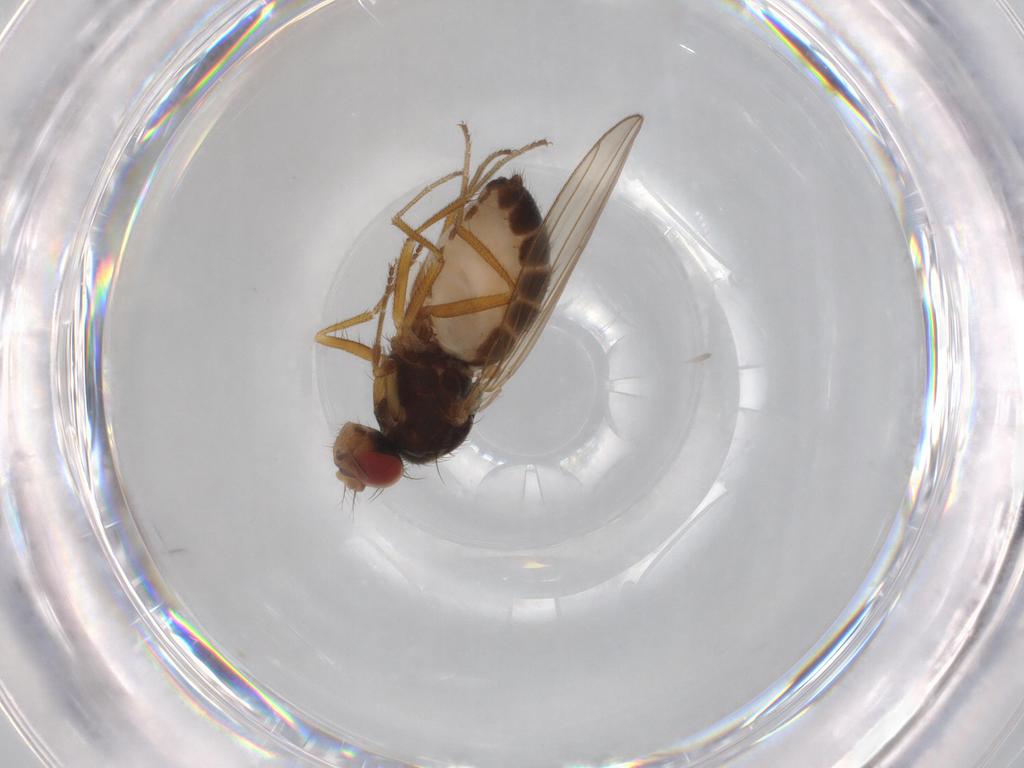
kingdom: Animalia
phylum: Arthropoda
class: Insecta
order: Diptera
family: Drosophilidae
